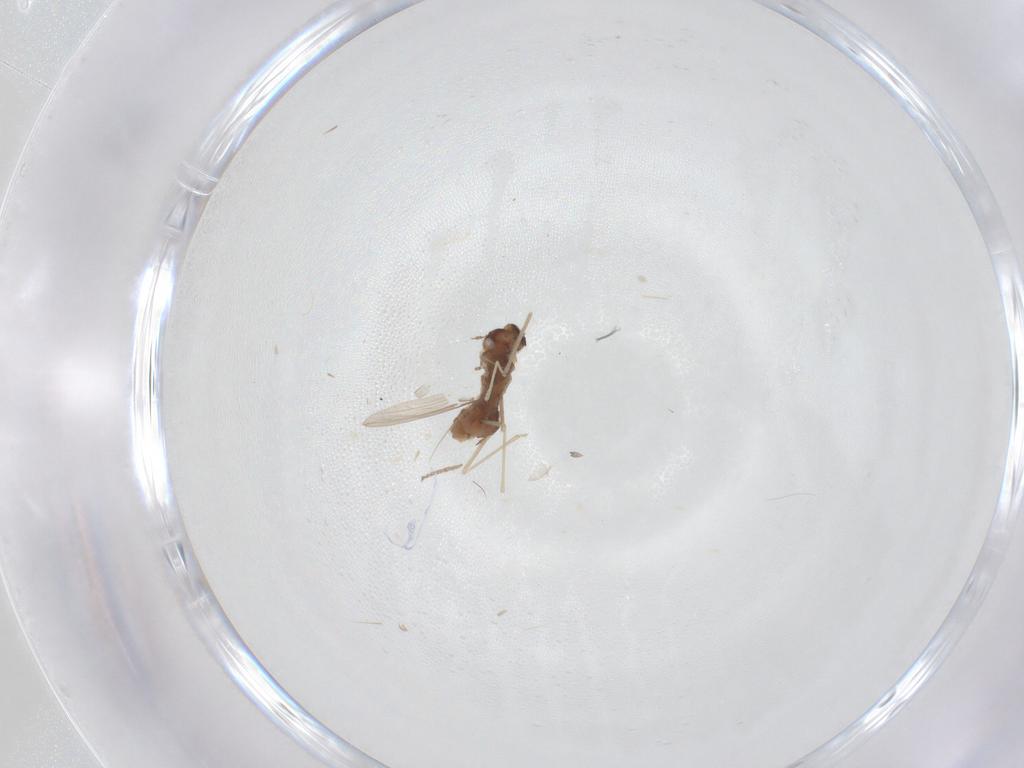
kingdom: Animalia
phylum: Arthropoda
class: Insecta
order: Diptera
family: Cecidomyiidae
